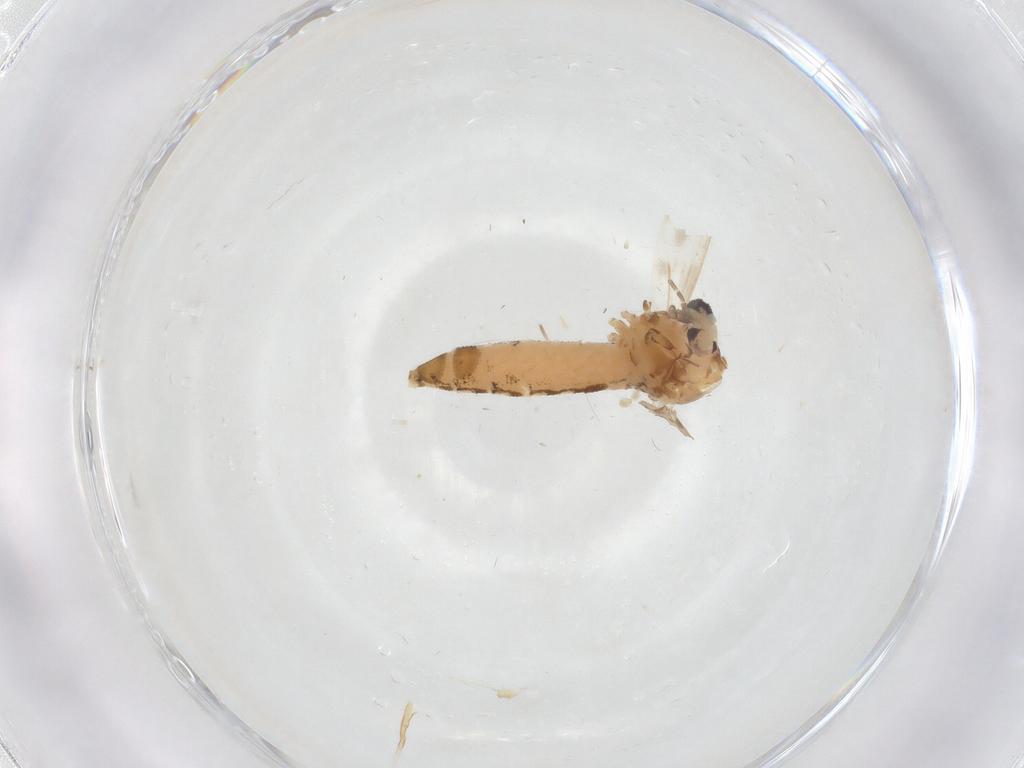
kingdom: Animalia
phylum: Arthropoda
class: Insecta
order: Diptera
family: Corethrellidae
